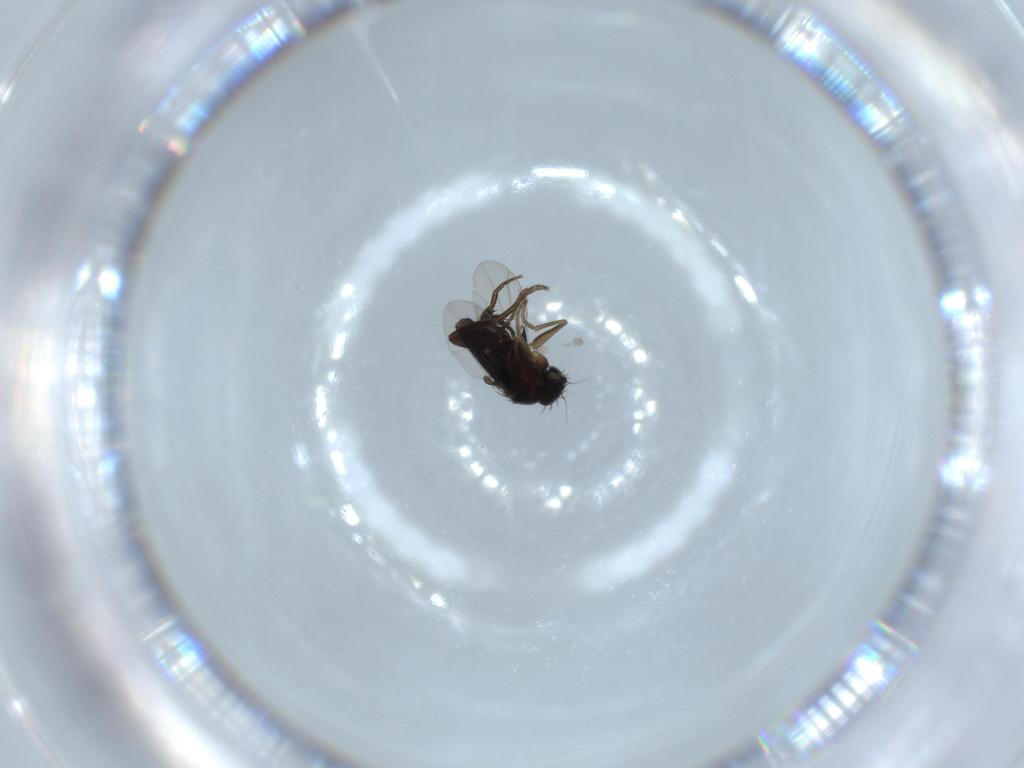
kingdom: Animalia
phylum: Arthropoda
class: Insecta
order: Diptera
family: Phoridae
